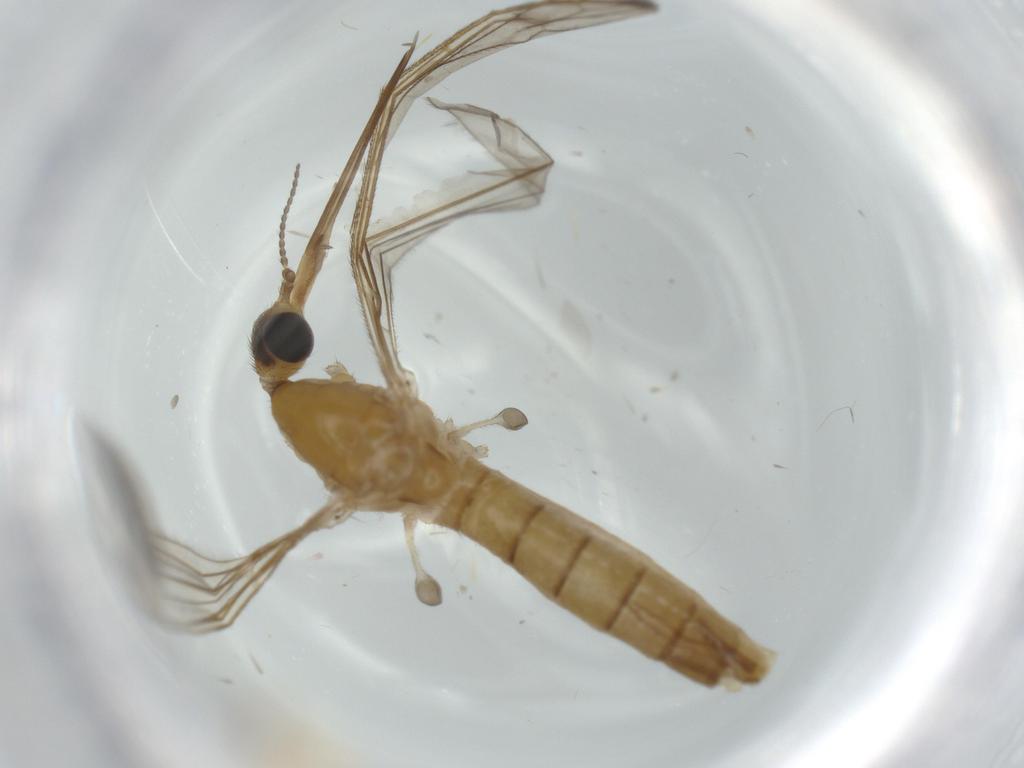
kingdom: Animalia
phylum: Arthropoda
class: Insecta
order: Diptera
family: Limoniidae
